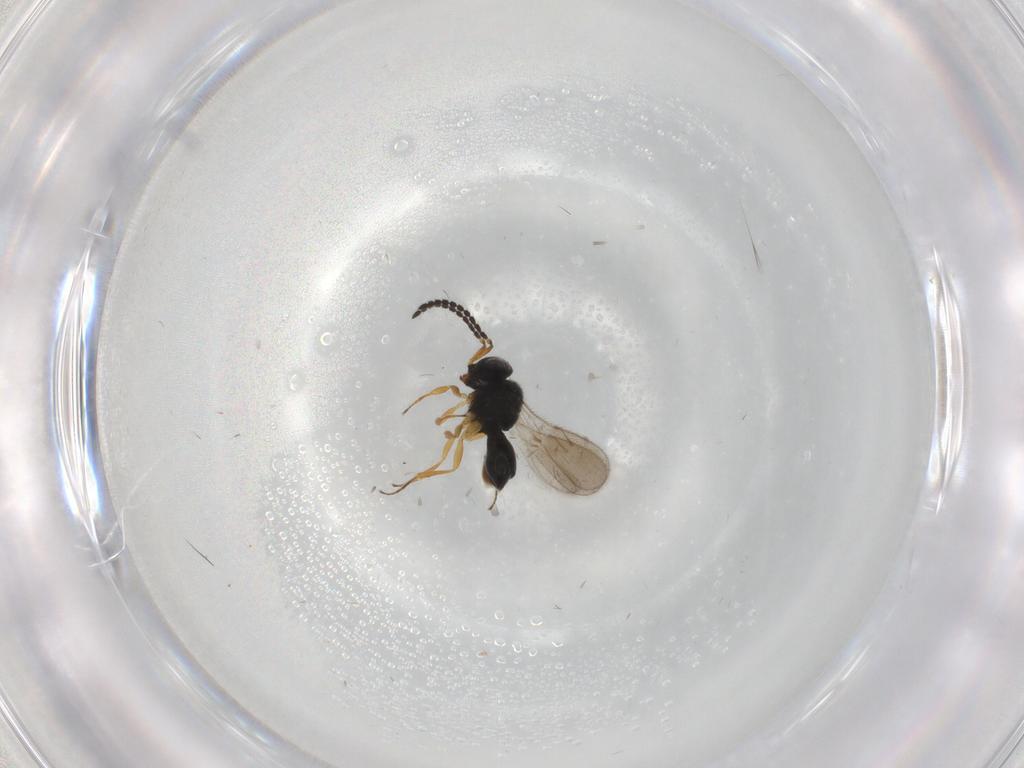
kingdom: Animalia
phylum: Arthropoda
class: Insecta
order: Hymenoptera
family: Scelionidae
